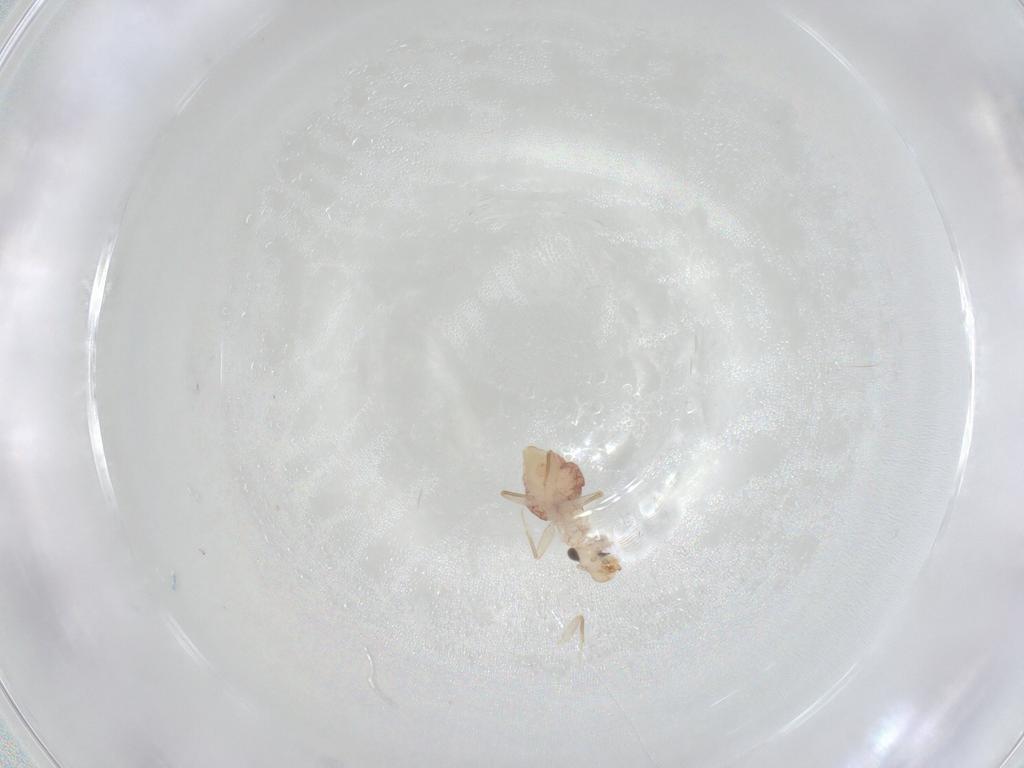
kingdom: Animalia
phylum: Arthropoda
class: Insecta
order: Psocodea
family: Lepidopsocidae
